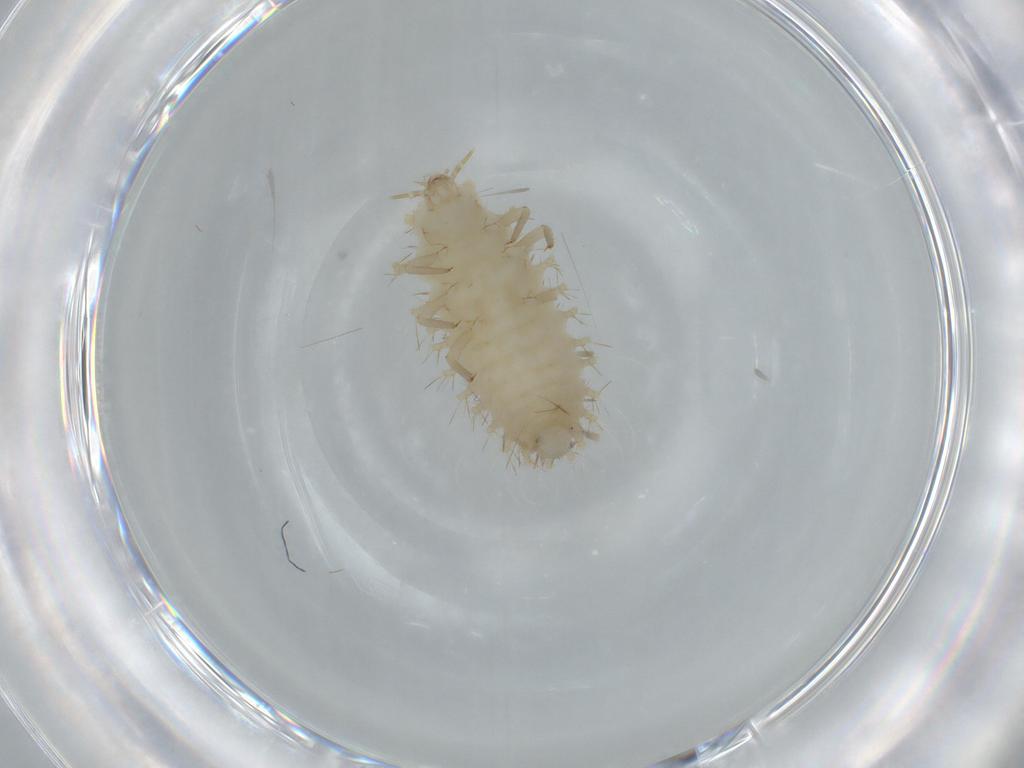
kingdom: Animalia
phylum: Arthropoda
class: Insecta
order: Coleoptera
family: Coccinellidae
